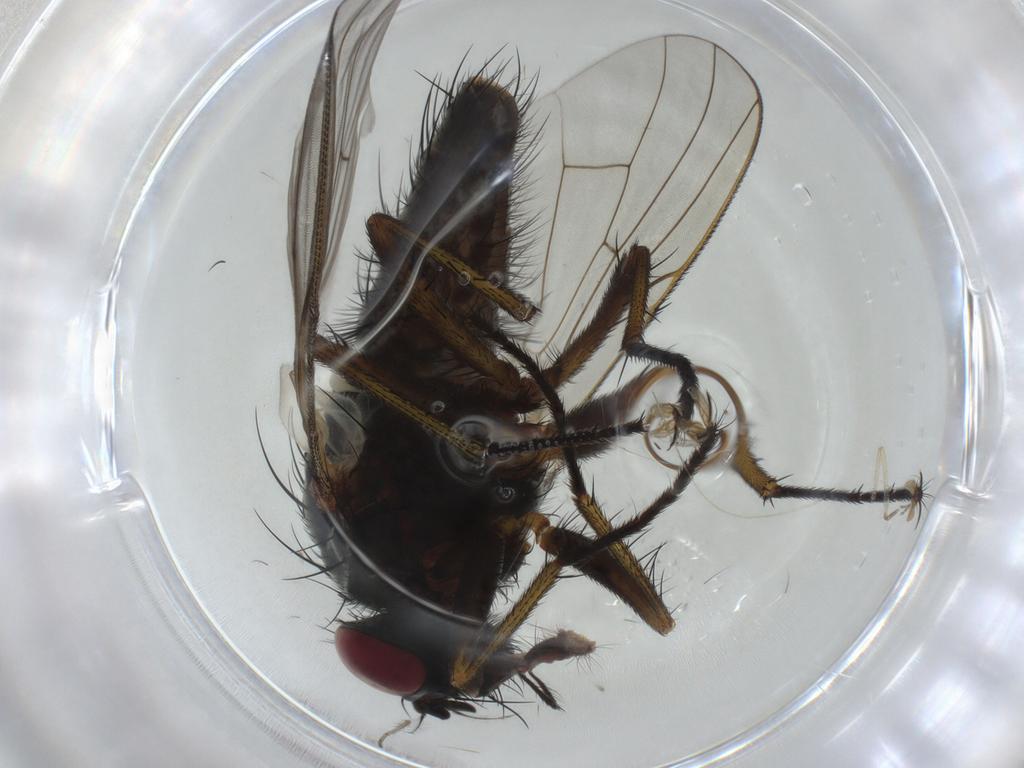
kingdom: Animalia
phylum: Arthropoda
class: Insecta
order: Diptera
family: Muscidae
